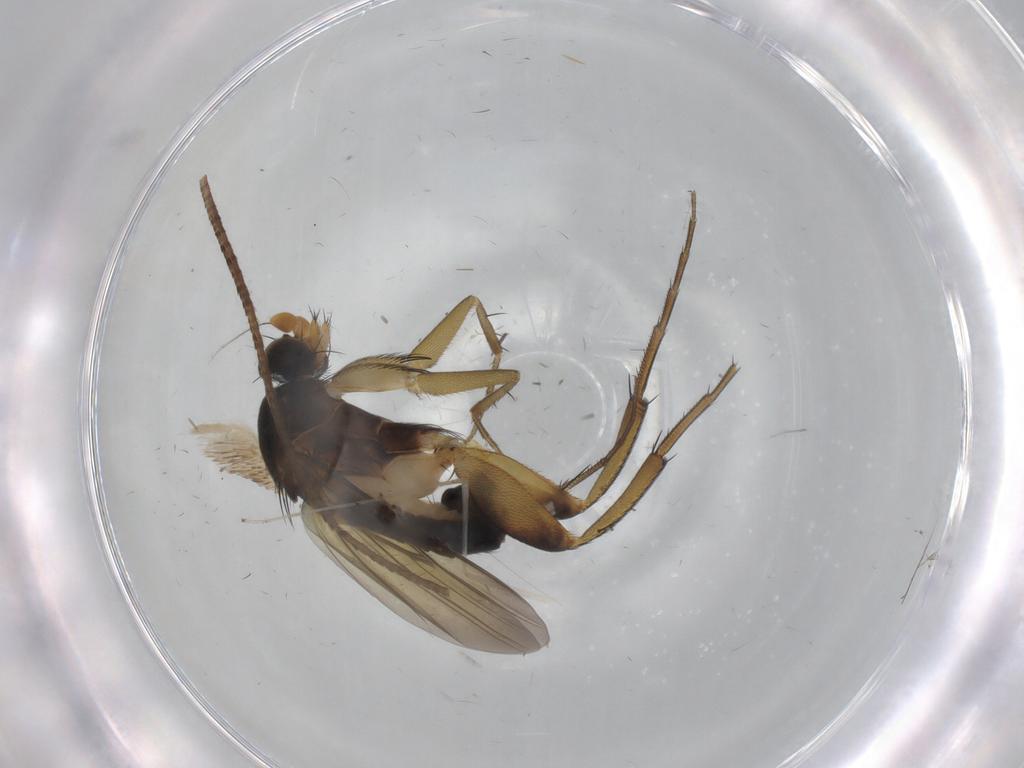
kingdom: Animalia
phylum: Arthropoda
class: Insecta
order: Diptera
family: Phoridae
